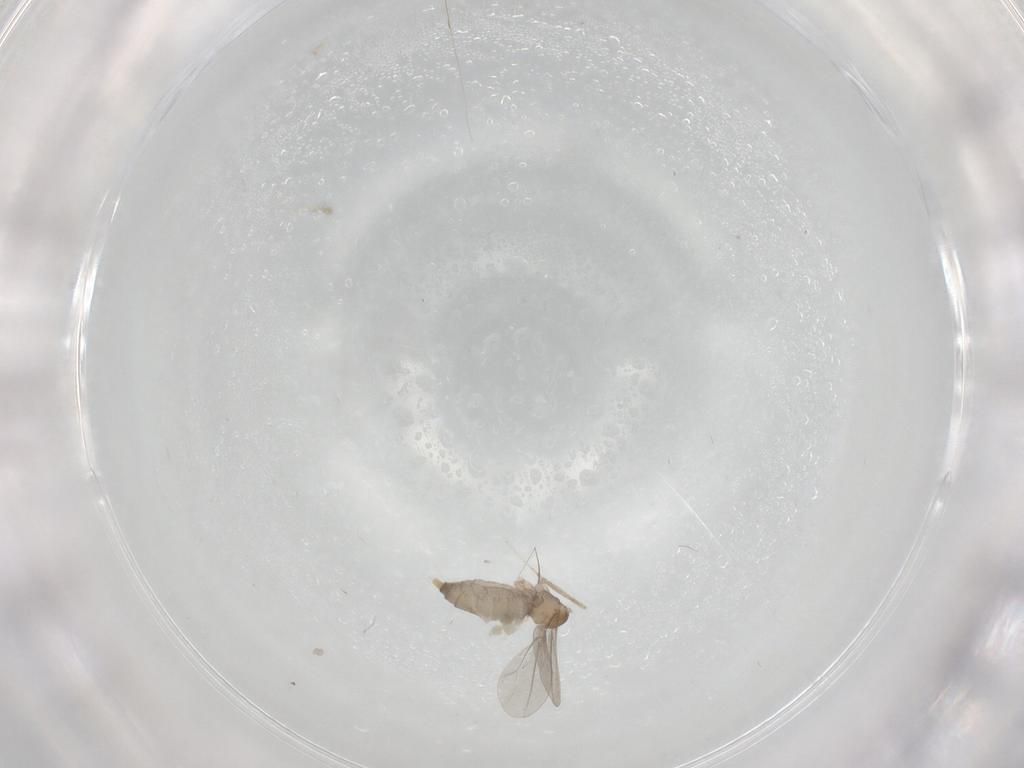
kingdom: Animalia
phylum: Arthropoda
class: Insecta
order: Diptera
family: Cecidomyiidae
